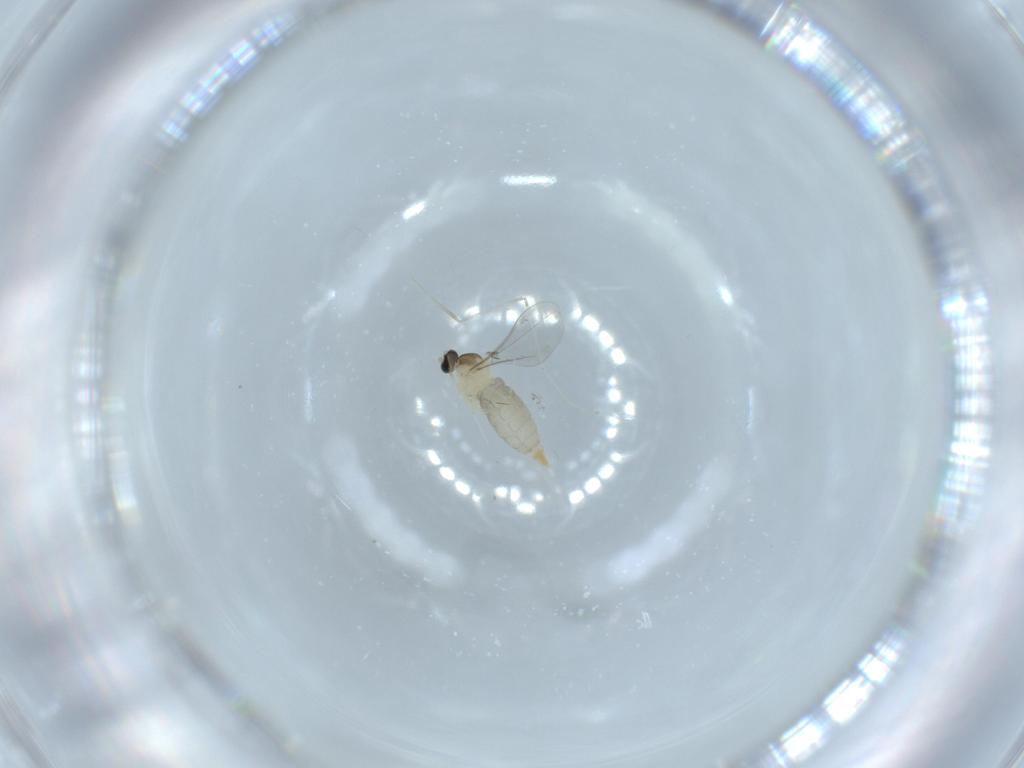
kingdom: Animalia
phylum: Arthropoda
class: Insecta
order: Diptera
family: Cecidomyiidae
